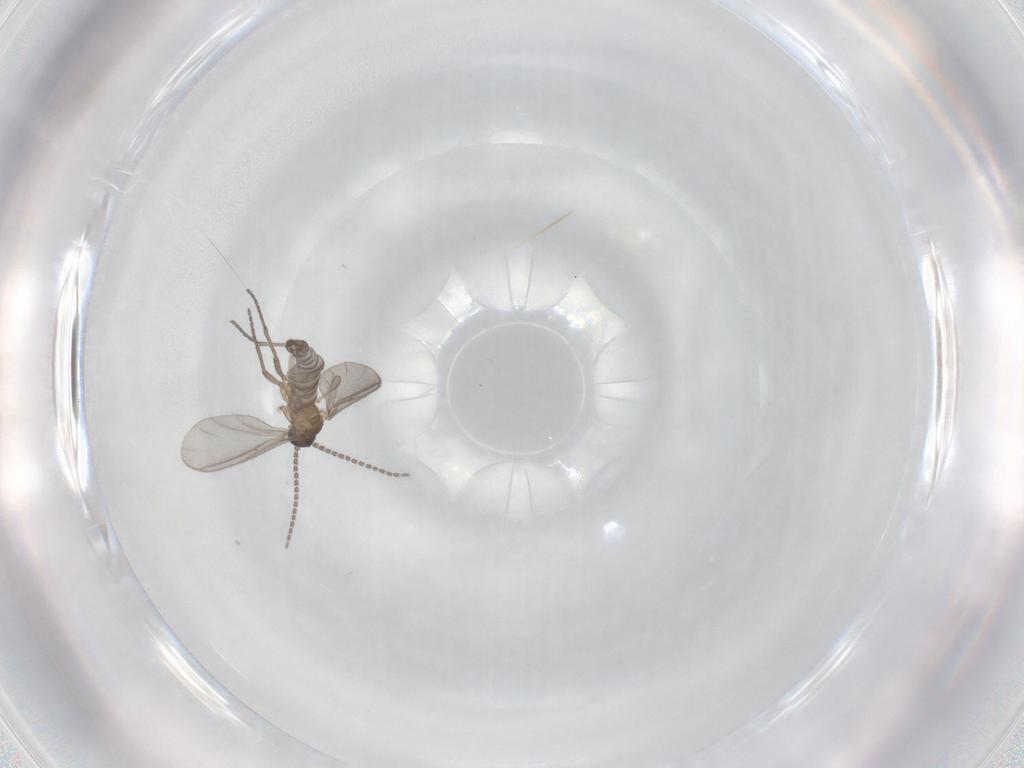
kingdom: Animalia
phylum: Arthropoda
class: Insecta
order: Diptera
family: Sciaridae
